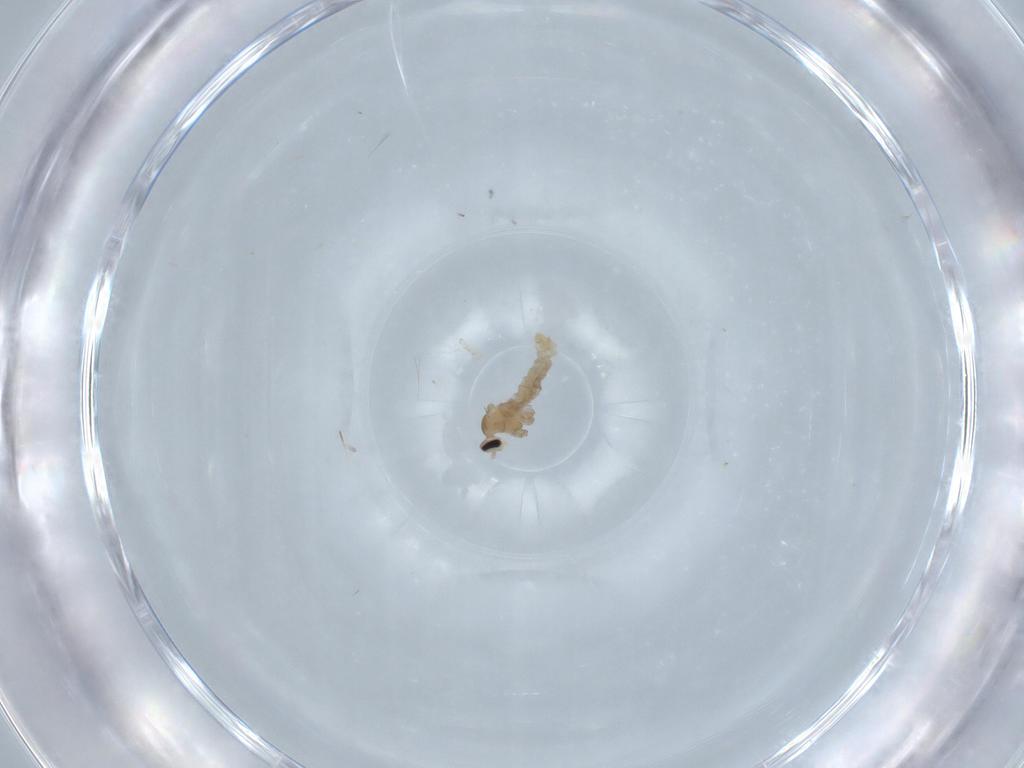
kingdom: Animalia
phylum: Arthropoda
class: Insecta
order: Diptera
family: Cecidomyiidae
